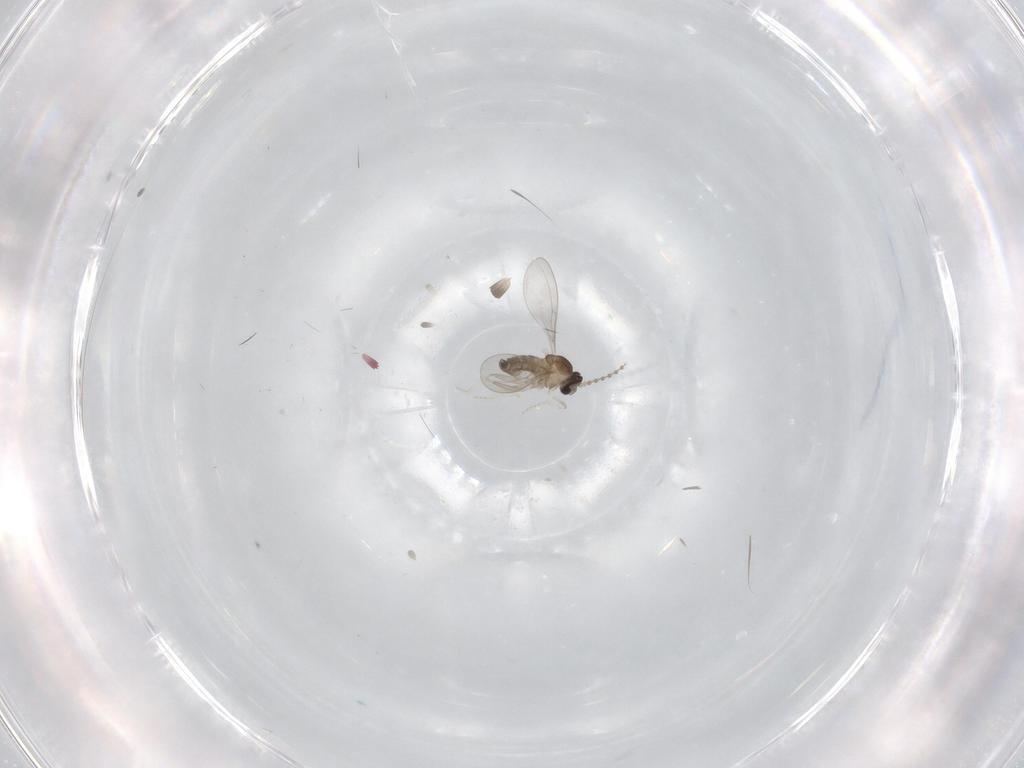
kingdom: Animalia
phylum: Arthropoda
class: Insecta
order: Diptera
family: Cecidomyiidae
